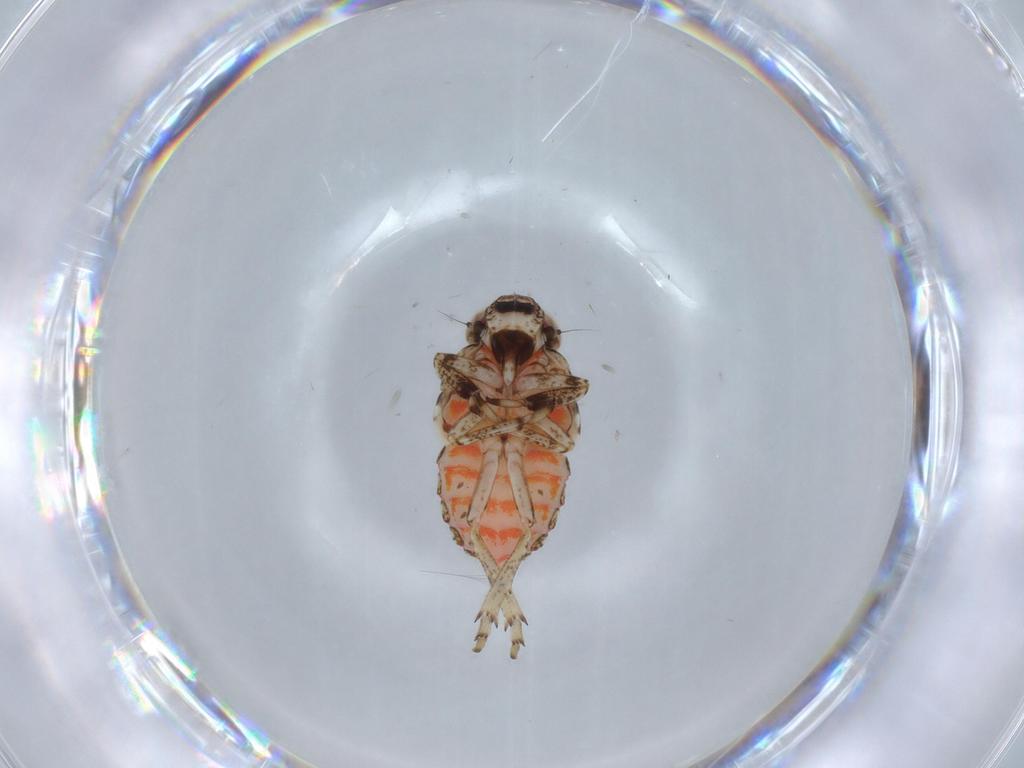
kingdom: Animalia
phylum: Arthropoda
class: Insecta
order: Hemiptera
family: Issidae
